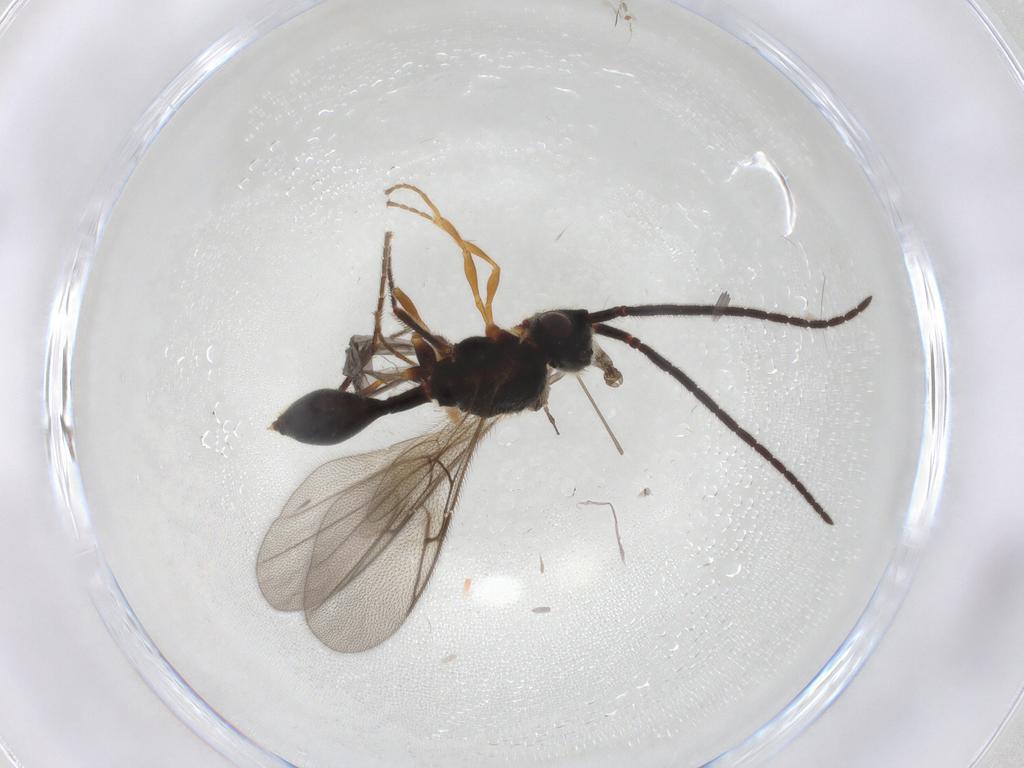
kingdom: Animalia
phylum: Arthropoda
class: Insecta
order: Hymenoptera
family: Diapriidae
